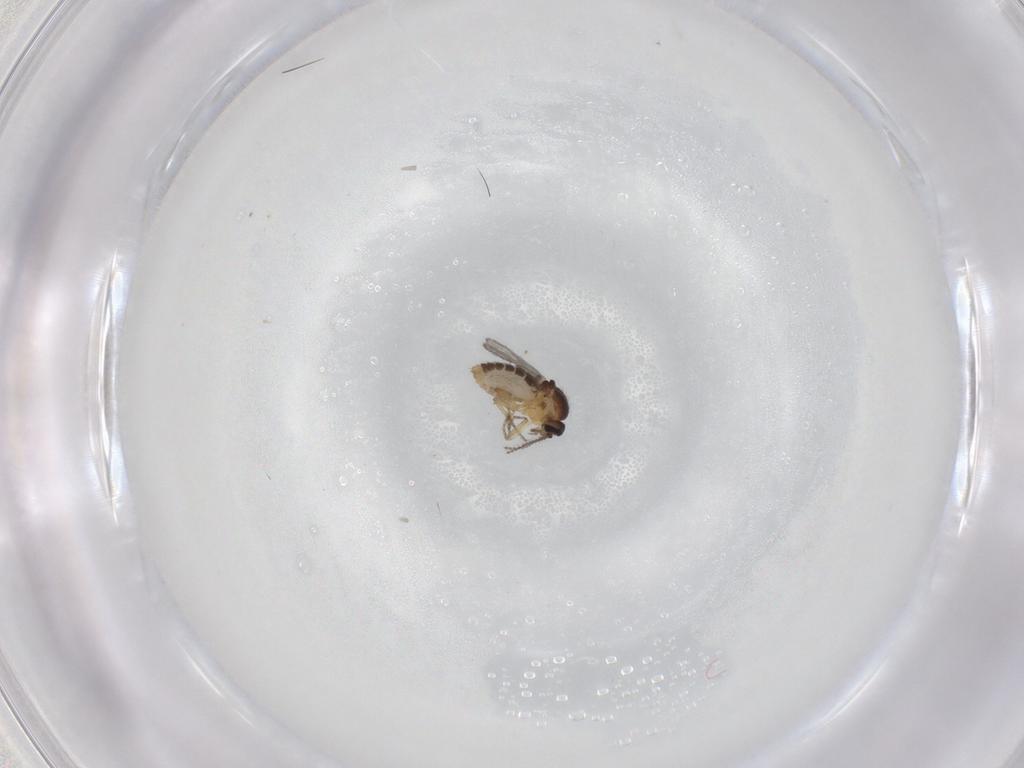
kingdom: Animalia
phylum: Arthropoda
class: Insecta
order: Diptera
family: Ceratopogonidae
